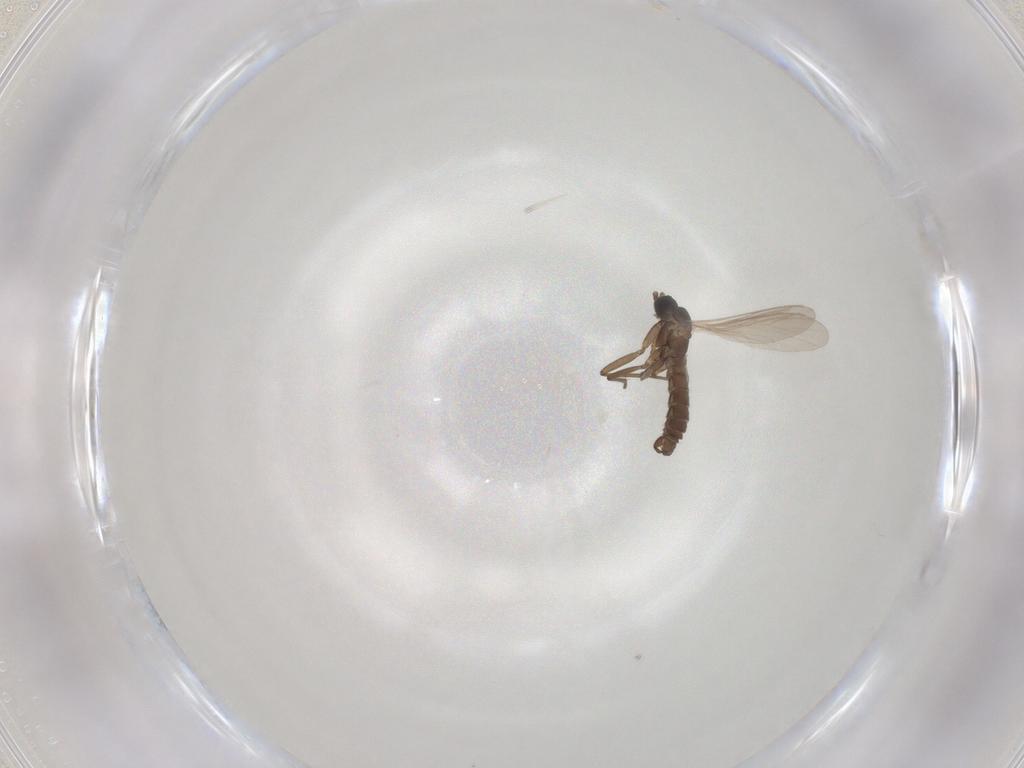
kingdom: Animalia
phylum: Arthropoda
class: Insecta
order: Diptera
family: Sciaridae
